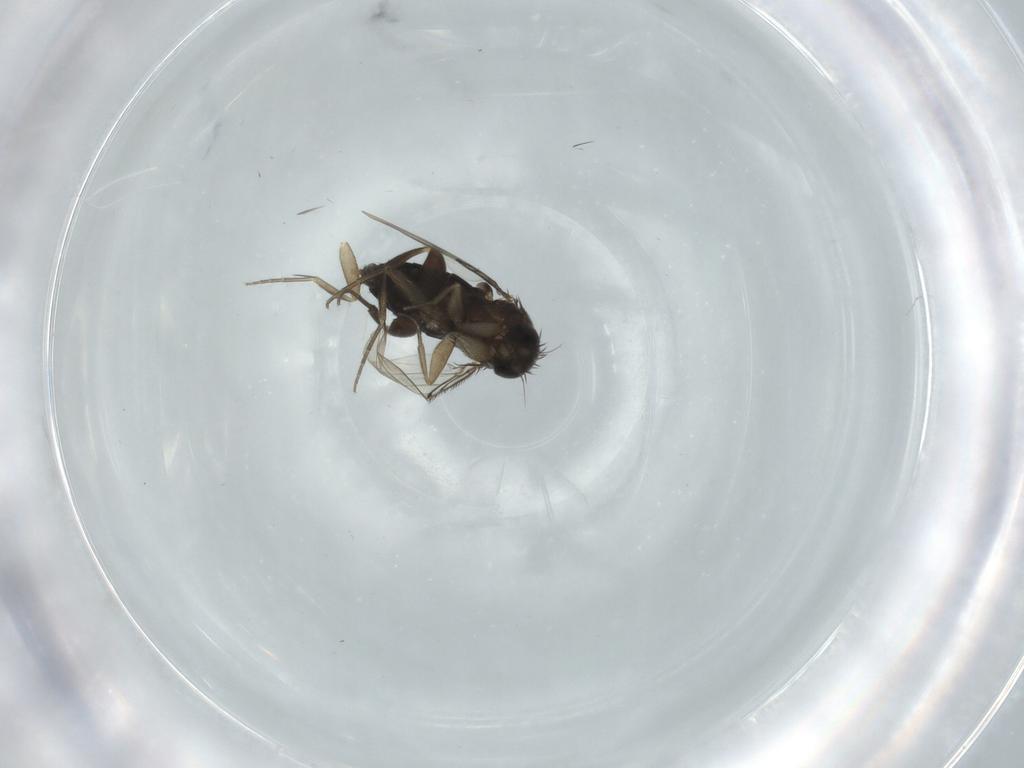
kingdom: Animalia
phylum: Arthropoda
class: Insecta
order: Diptera
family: Phoridae
